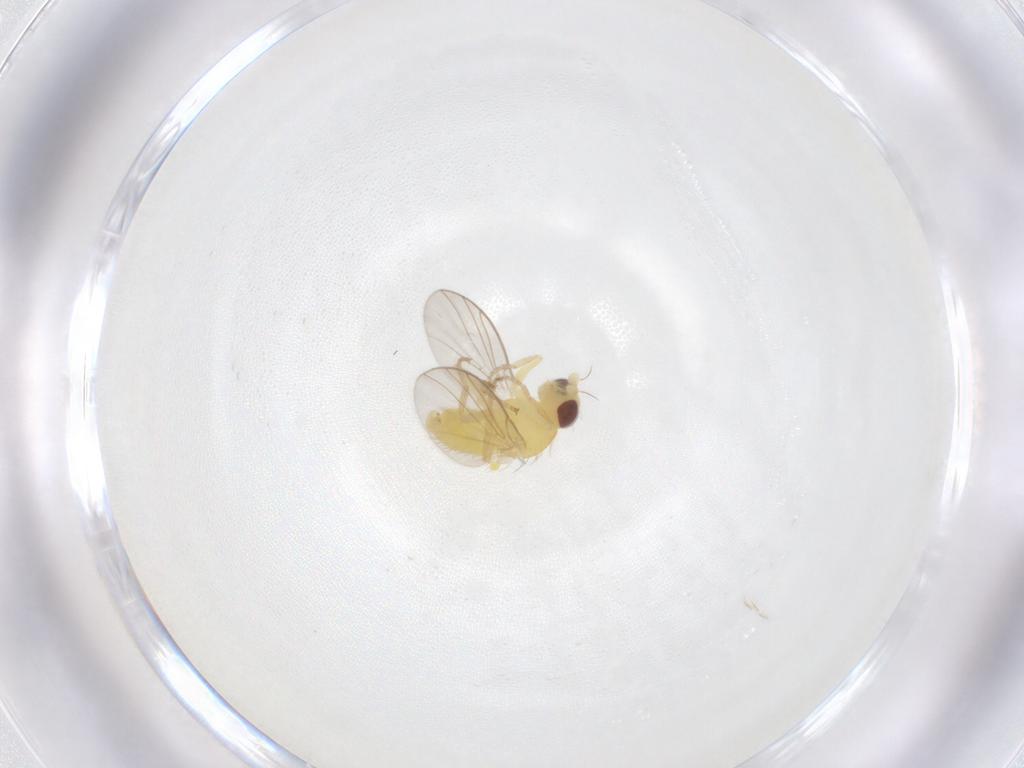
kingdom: Animalia
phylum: Arthropoda
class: Insecta
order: Diptera
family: Agromyzidae
